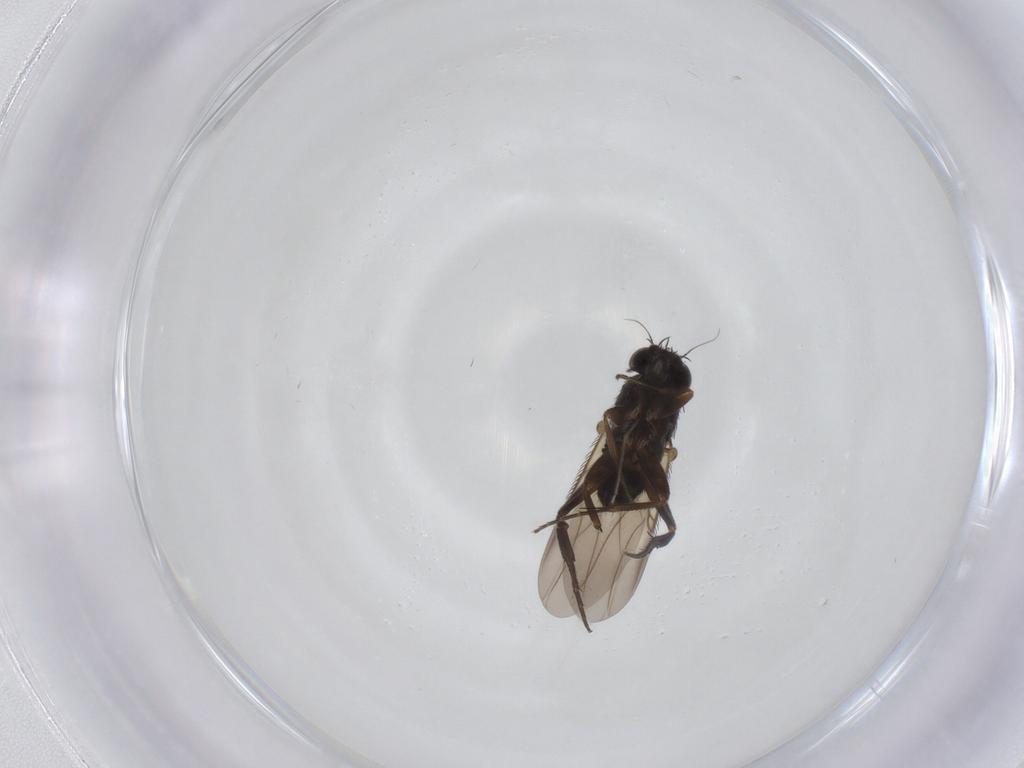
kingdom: Animalia
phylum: Arthropoda
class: Insecta
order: Diptera
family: Phoridae
